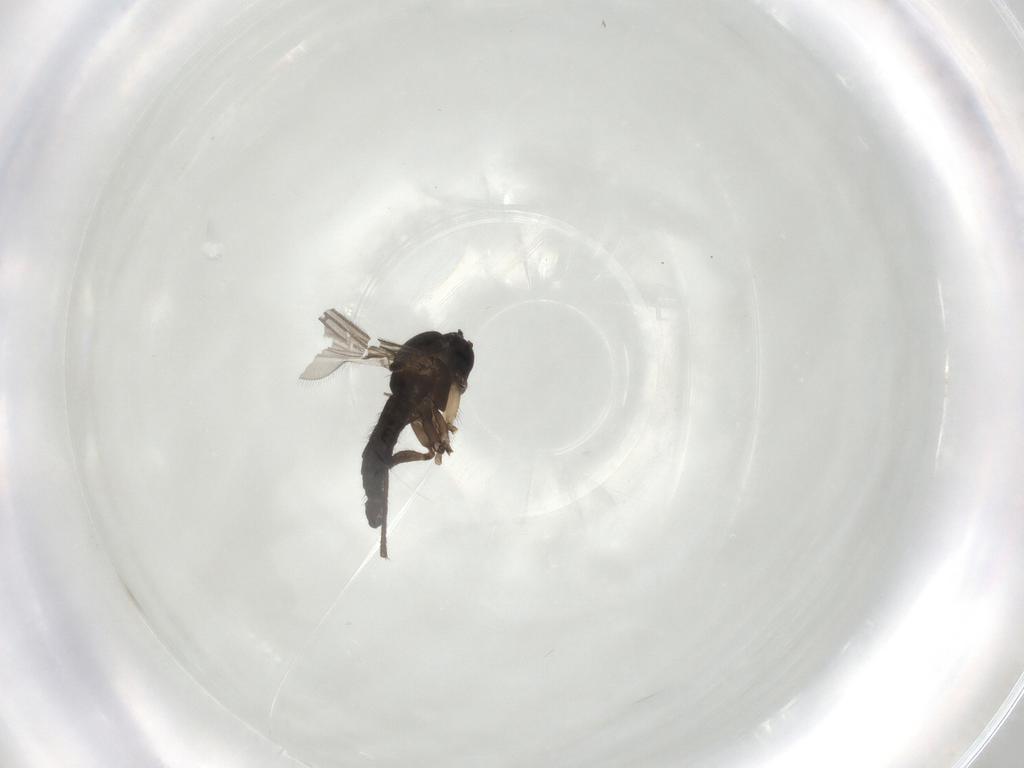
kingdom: Animalia
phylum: Arthropoda
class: Insecta
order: Diptera
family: Sciaridae
